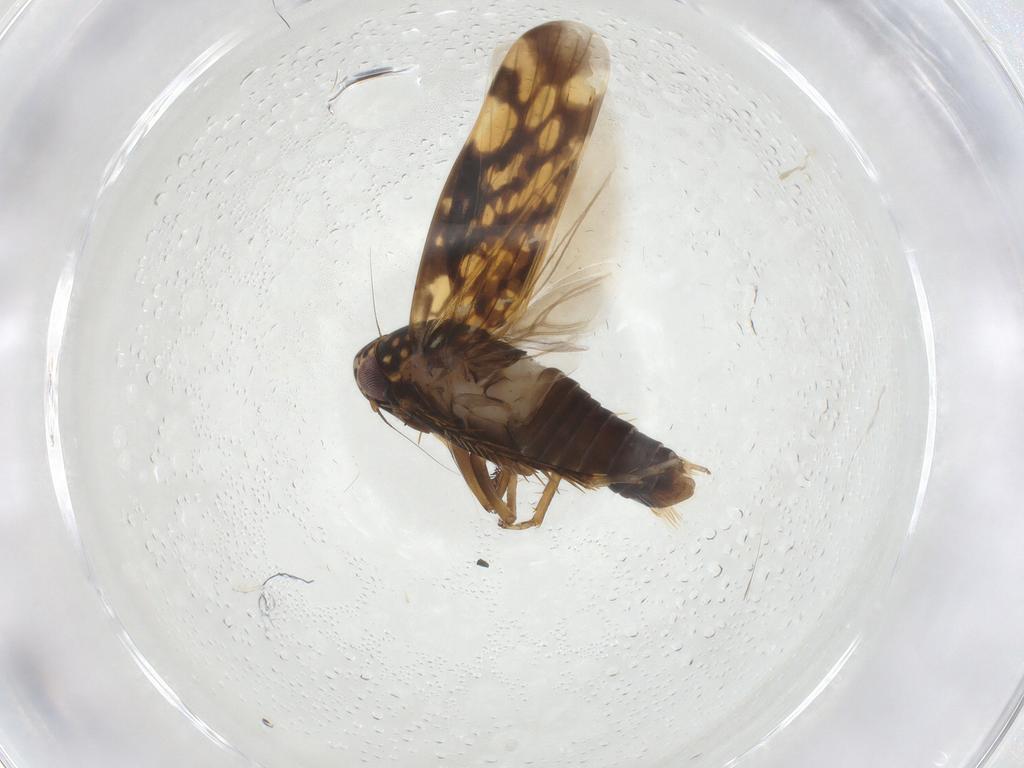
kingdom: Animalia
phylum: Arthropoda
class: Insecta
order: Hemiptera
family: Cicadellidae
